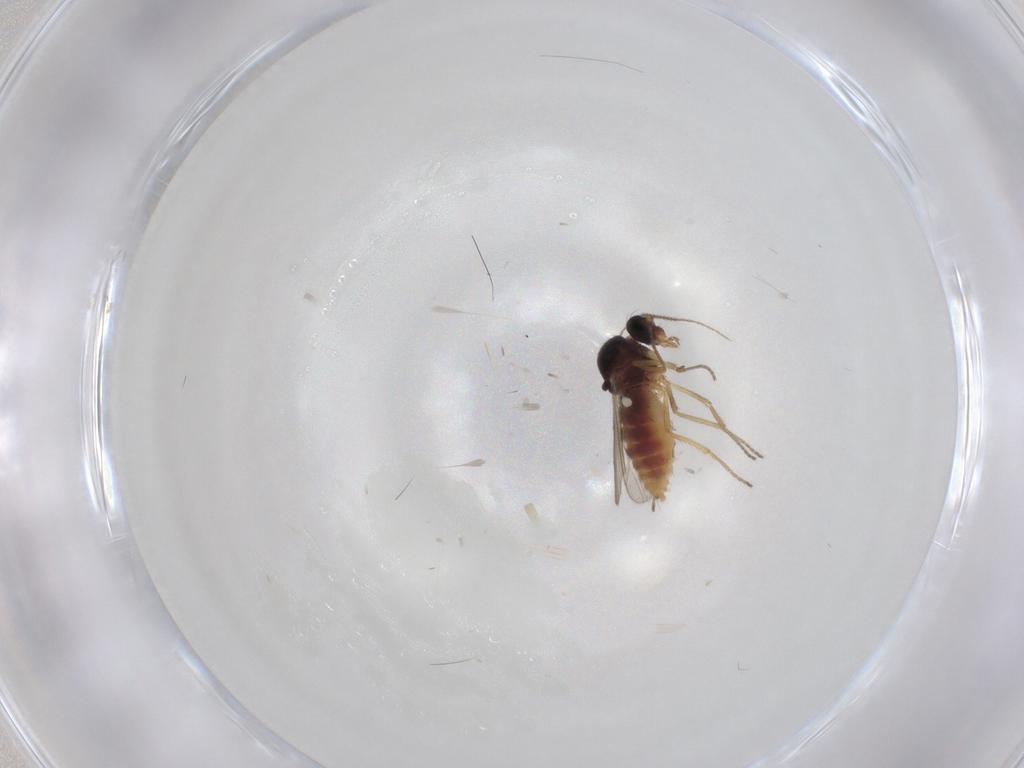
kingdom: Animalia
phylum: Arthropoda
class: Insecta
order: Diptera
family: Ceratopogonidae
